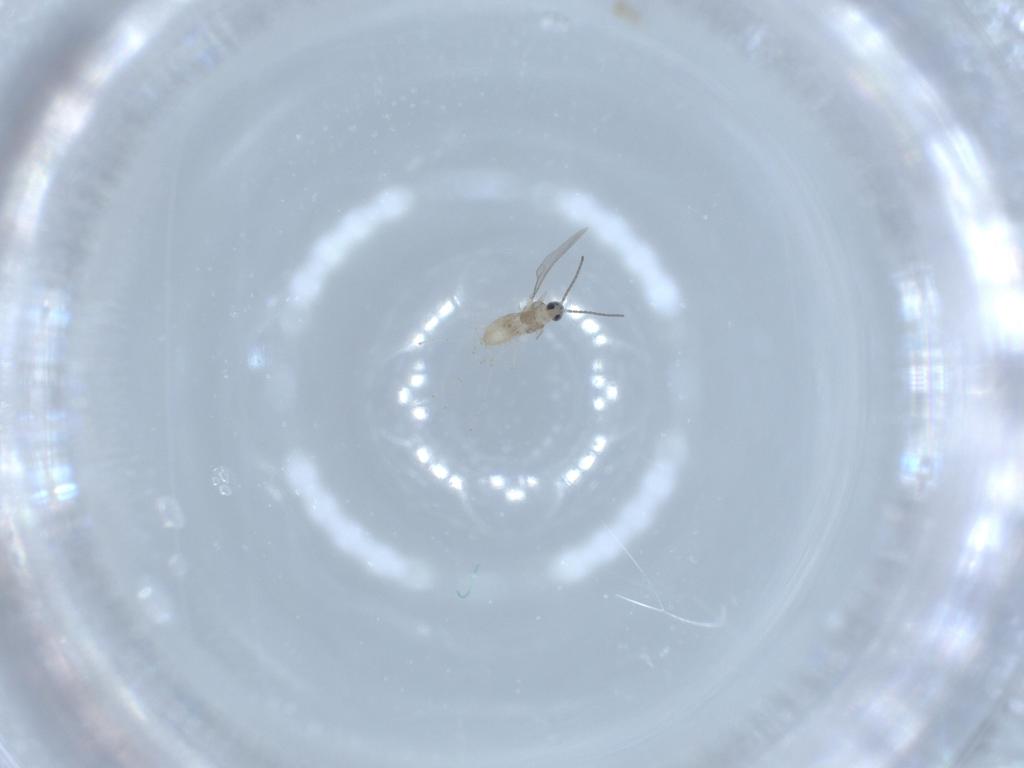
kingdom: Animalia
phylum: Arthropoda
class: Insecta
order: Diptera
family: Cecidomyiidae
